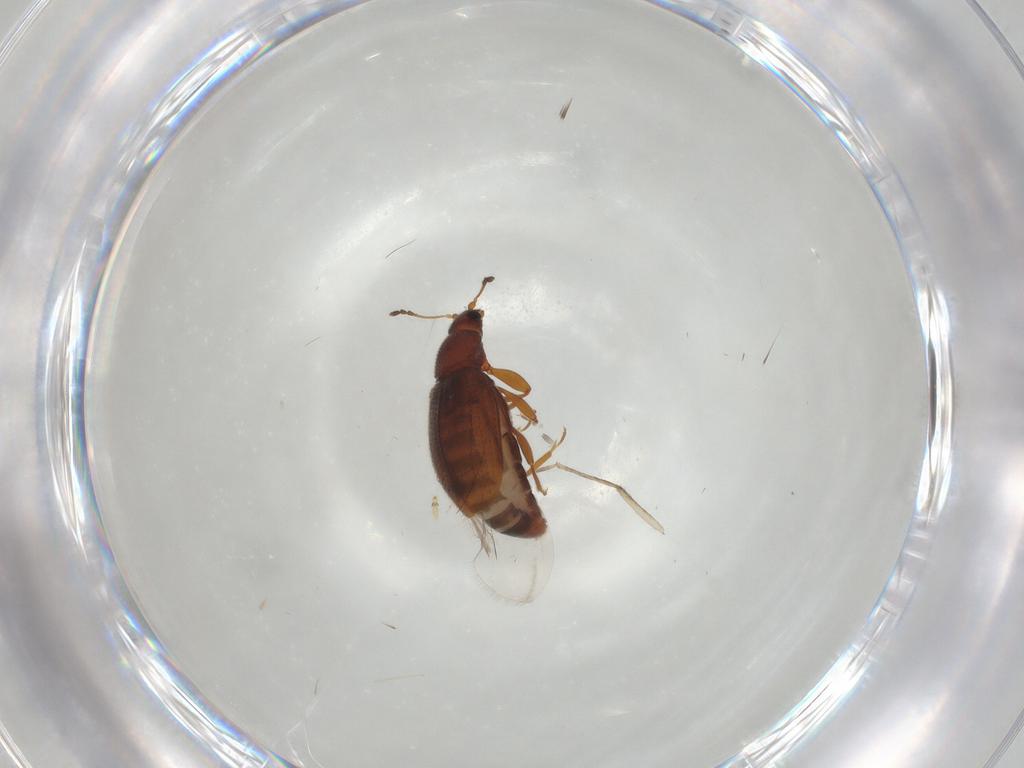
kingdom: Animalia
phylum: Arthropoda
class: Insecta
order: Coleoptera
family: Latridiidae
